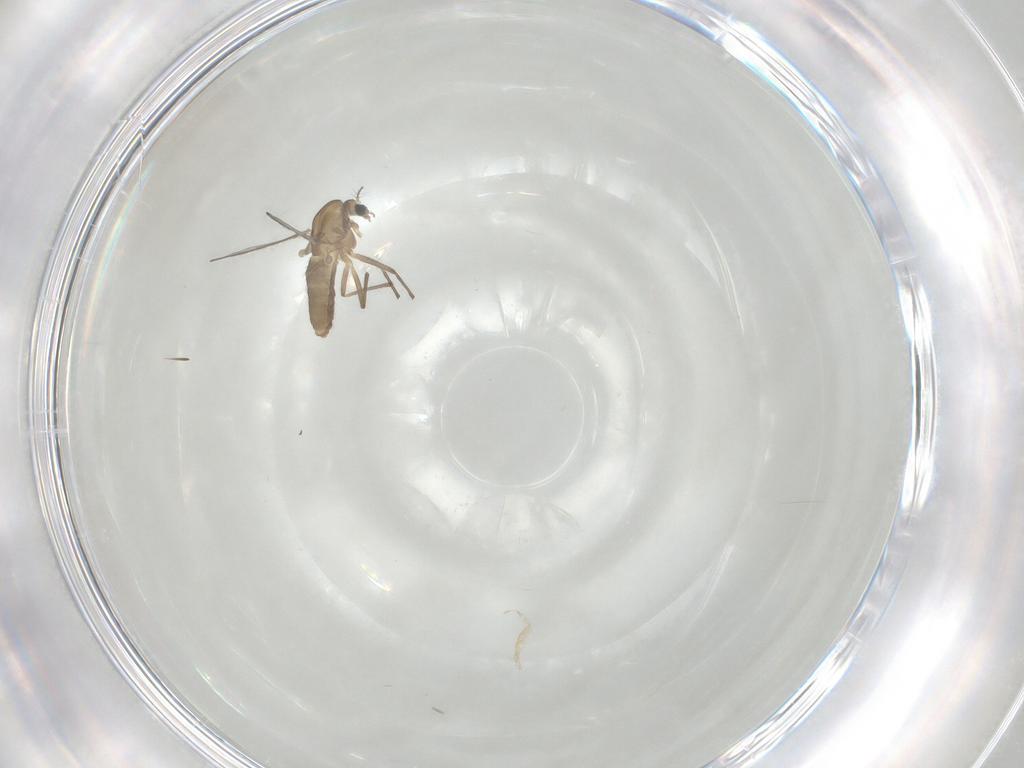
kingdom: Animalia
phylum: Arthropoda
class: Insecta
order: Diptera
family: Chironomidae
